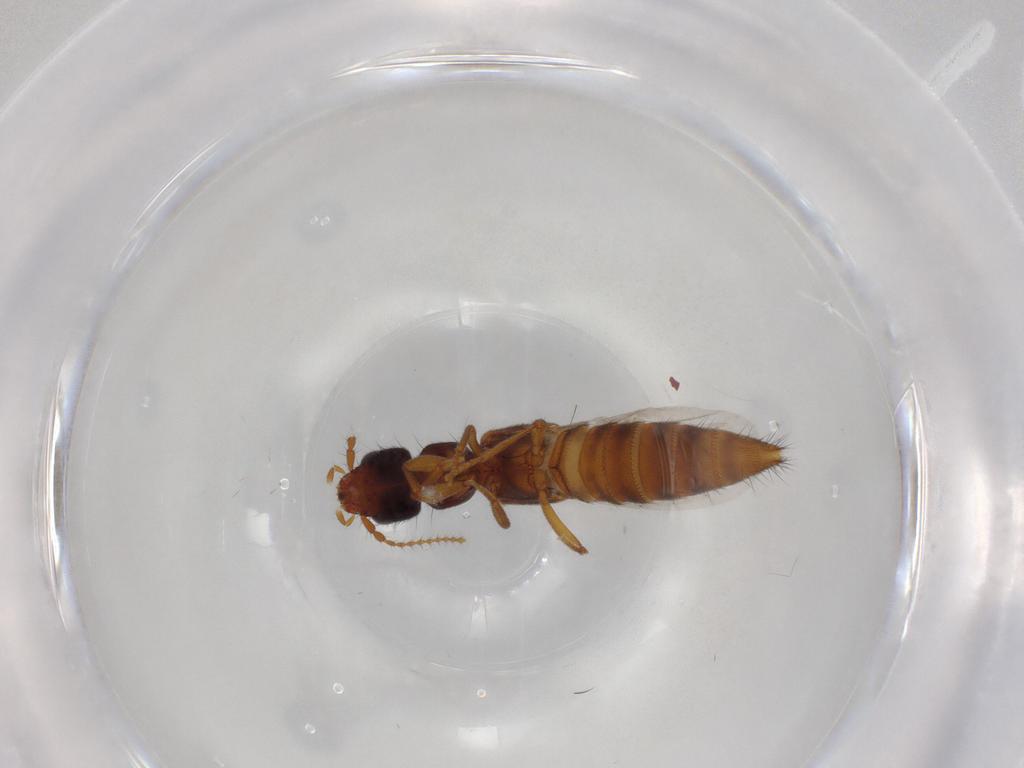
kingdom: Animalia
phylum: Arthropoda
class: Insecta
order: Coleoptera
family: Staphylinidae
